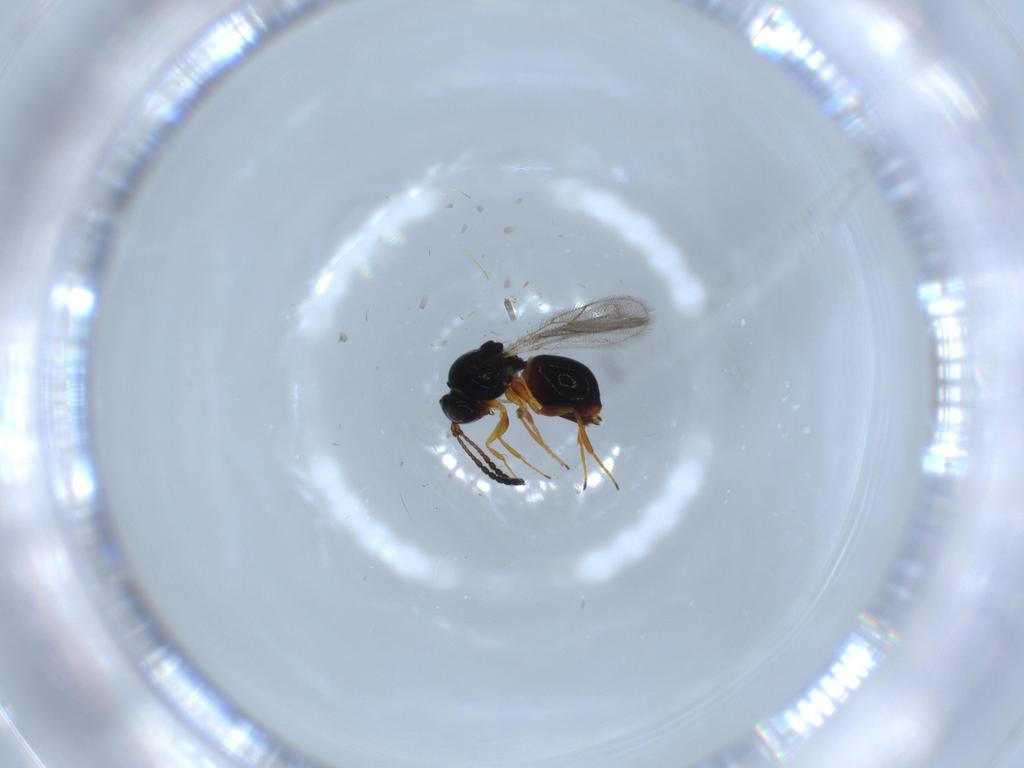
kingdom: Animalia
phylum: Arthropoda
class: Insecta
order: Hymenoptera
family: Figitidae
